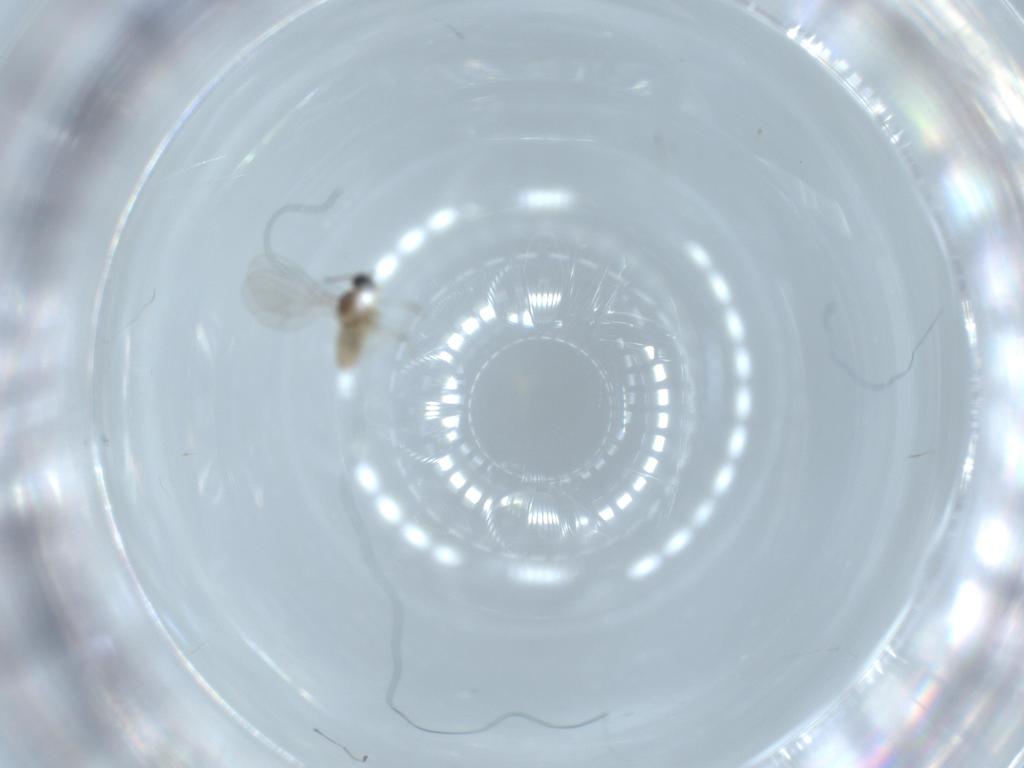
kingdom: Animalia
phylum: Arthropoda
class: Insecta
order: Diptera
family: Cecidomyiidae
